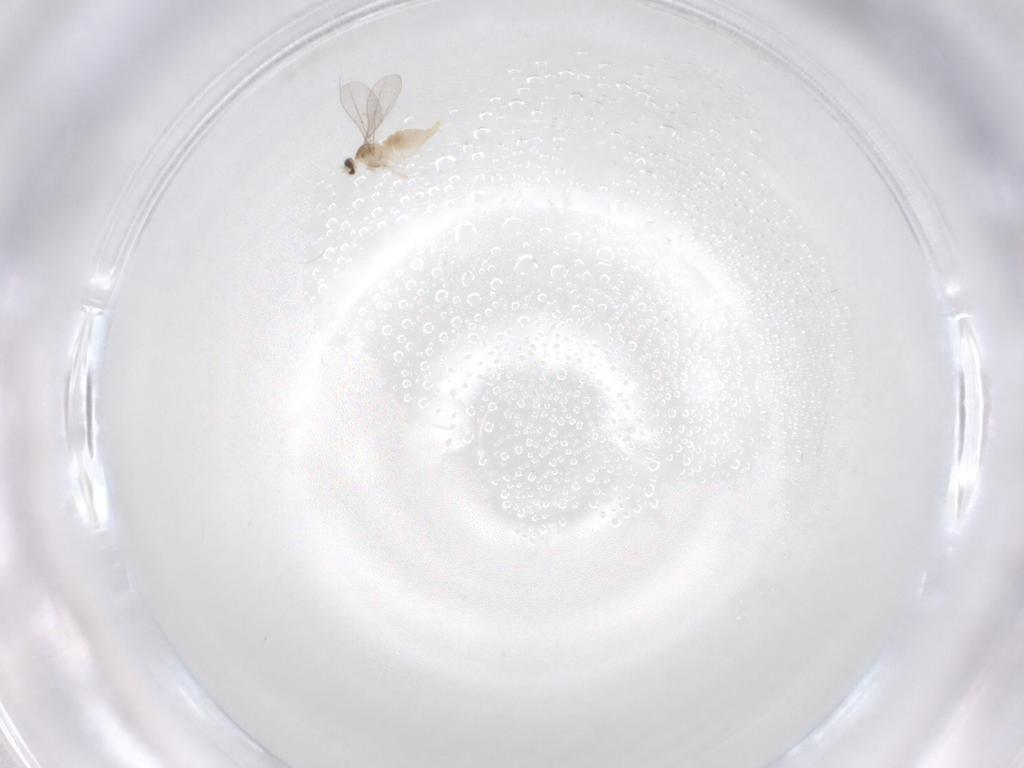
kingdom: Animalia
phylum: Arthropoda
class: Insecta
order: Diptera
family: Cecidomyiidae
